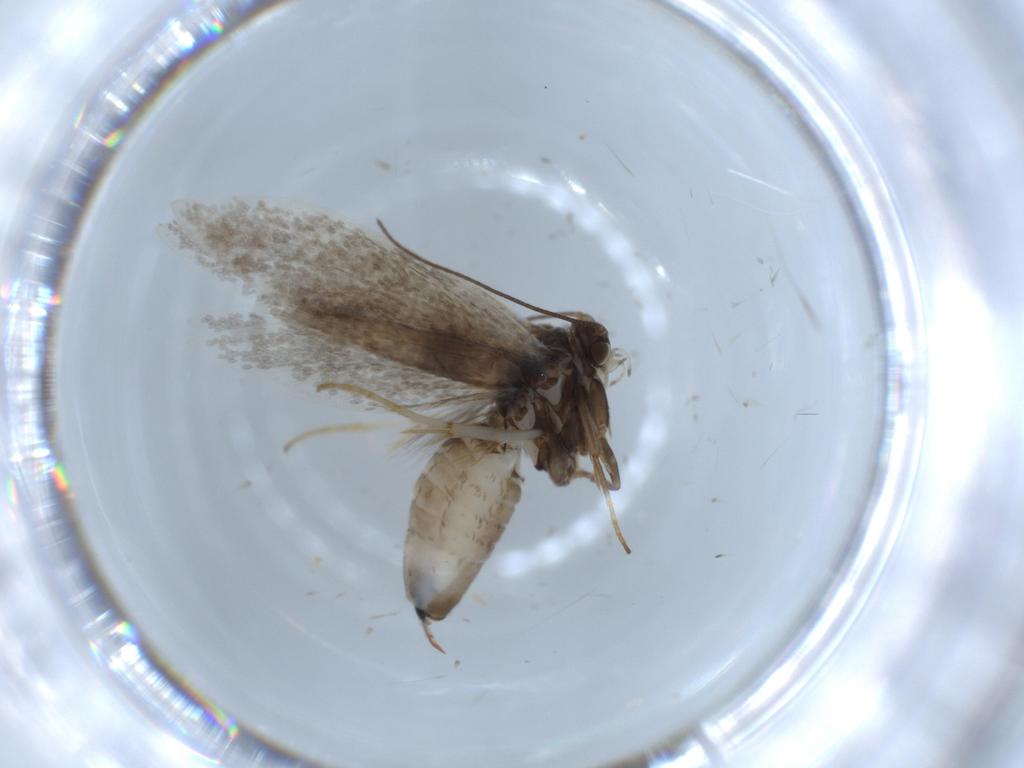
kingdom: Animalia
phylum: Arthropoda
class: Insecta
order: Lepidoptera
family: Incurvariidae
